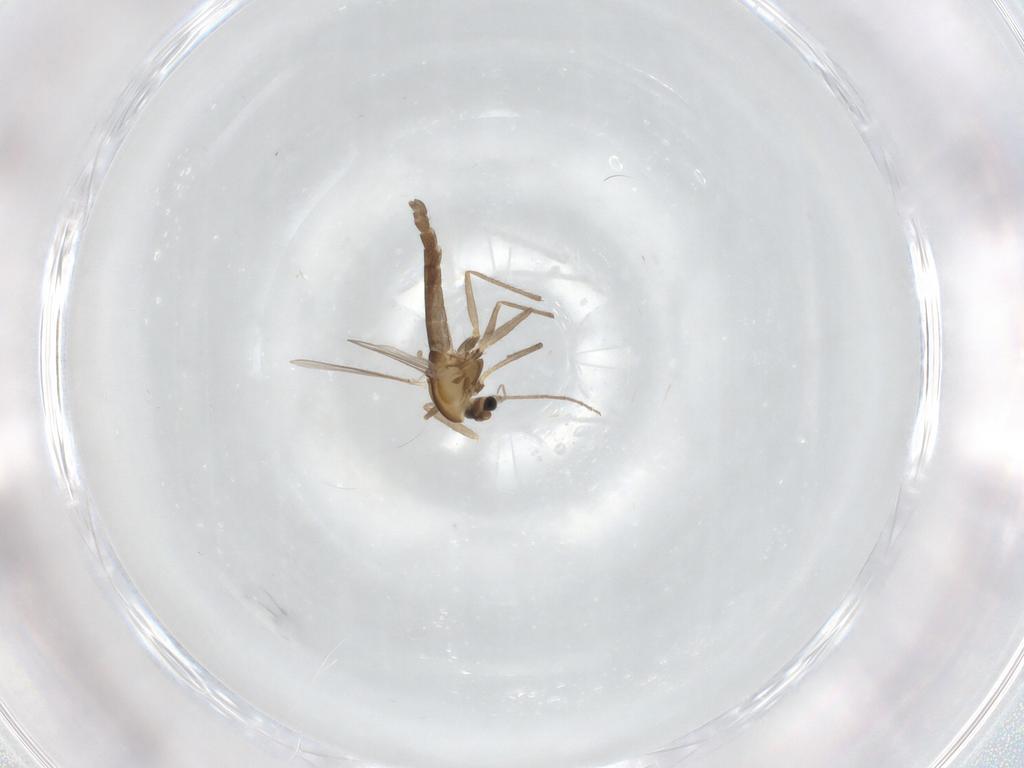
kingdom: Animalia
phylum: Arthropoda
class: Insecta
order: Diptera
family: Chironomidae
